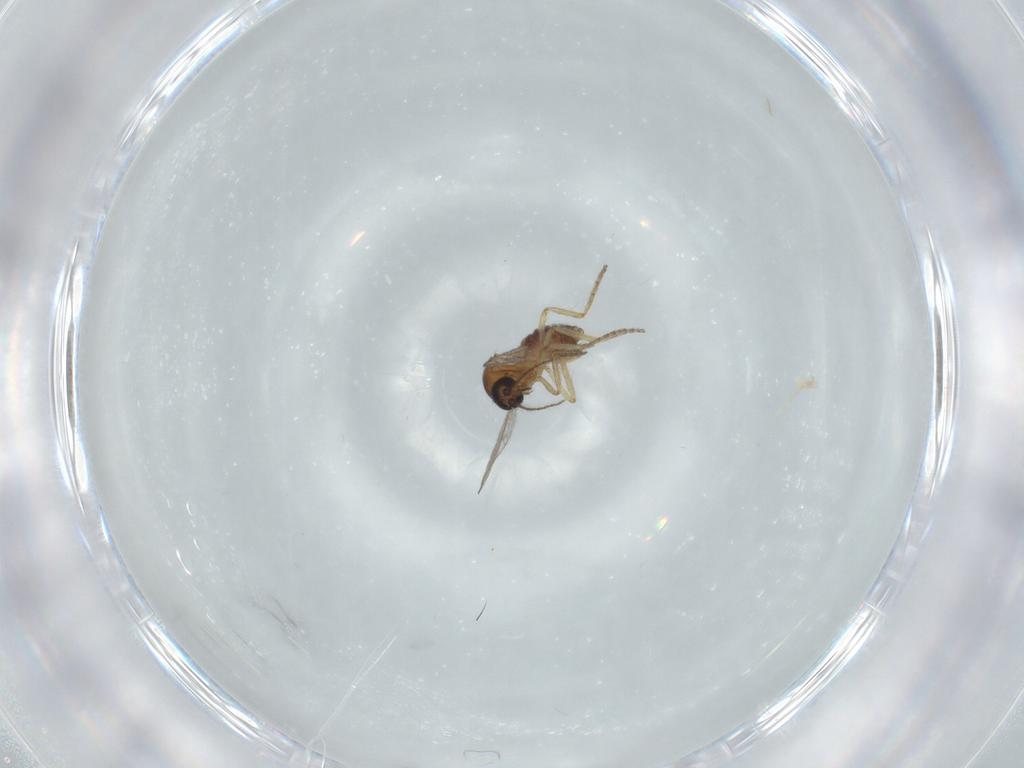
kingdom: Animalia
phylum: Arthropoda
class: Insecta
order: Diptera
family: Ceratopogonidae
